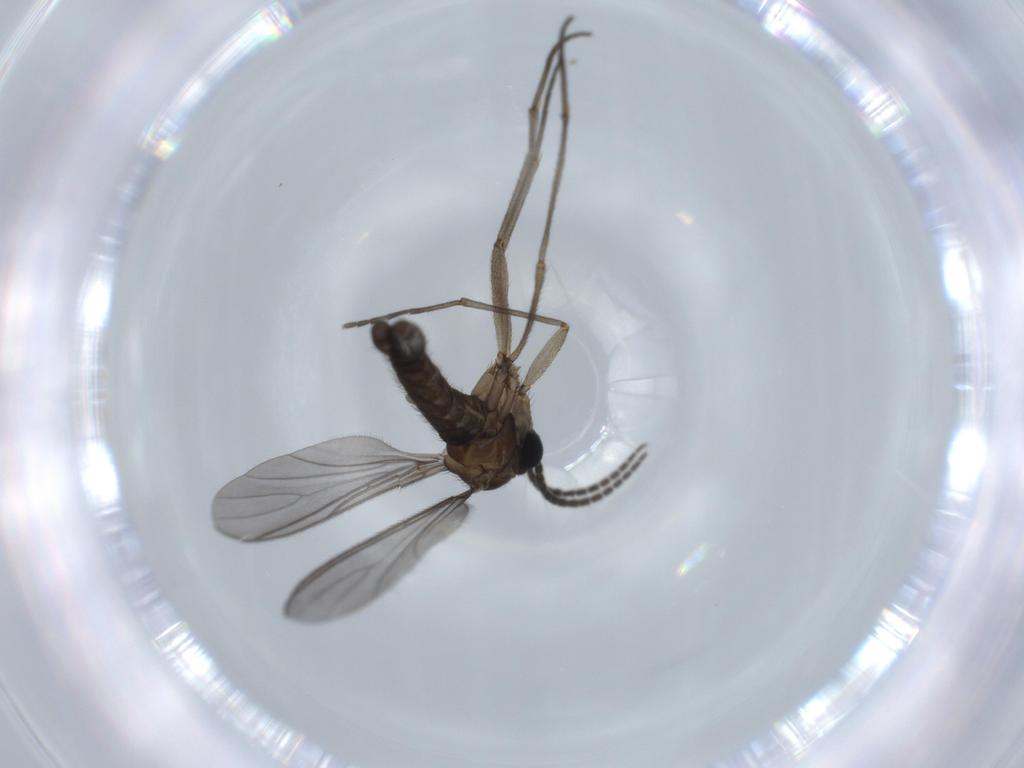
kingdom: Animalia
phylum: Arthropoda
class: Insecta
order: Diptera
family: Sciaridae
